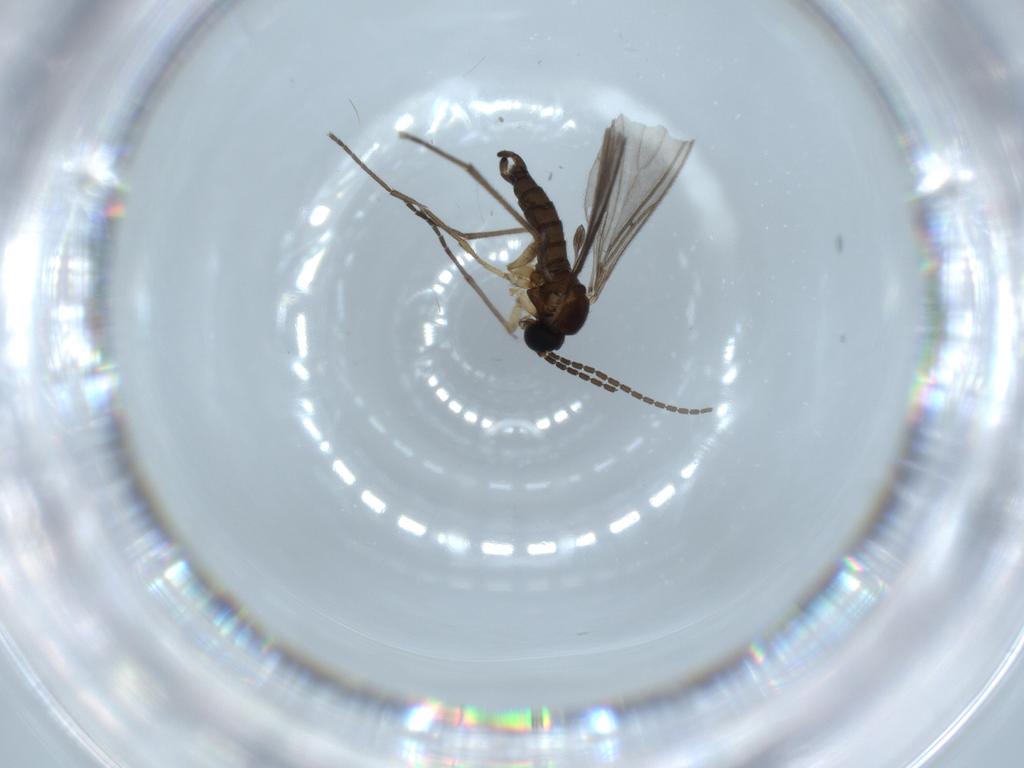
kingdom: Animalia
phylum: Arthropoda
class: Insecta
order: Diptera
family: Sciaridae
